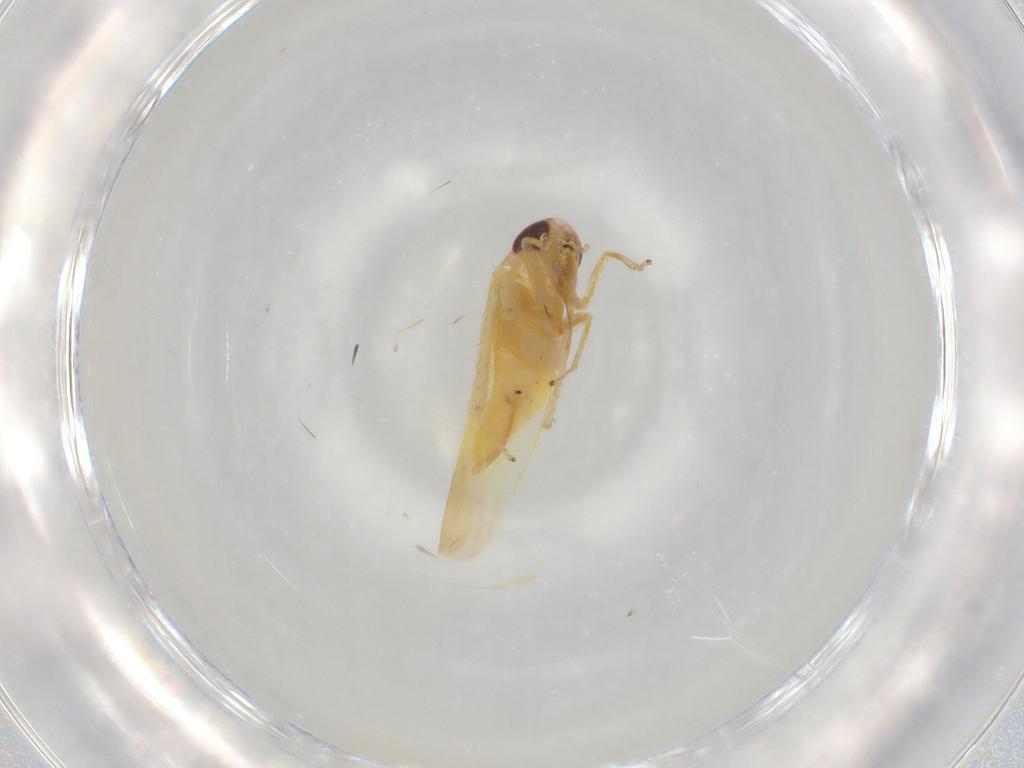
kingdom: Animalia
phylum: Arthropoda
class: Insecta
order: Hemiptera
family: Cicadellidae
